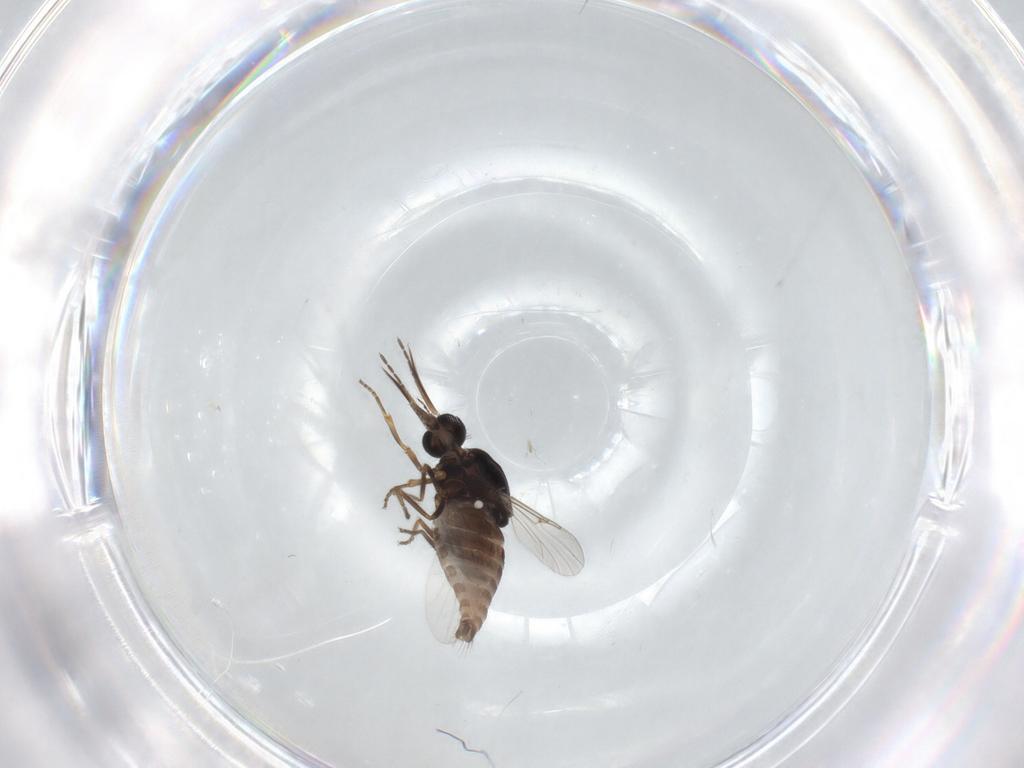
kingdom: Animalia
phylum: Arthropoda
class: Insecta
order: Diptera
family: Ceratopogonidae
